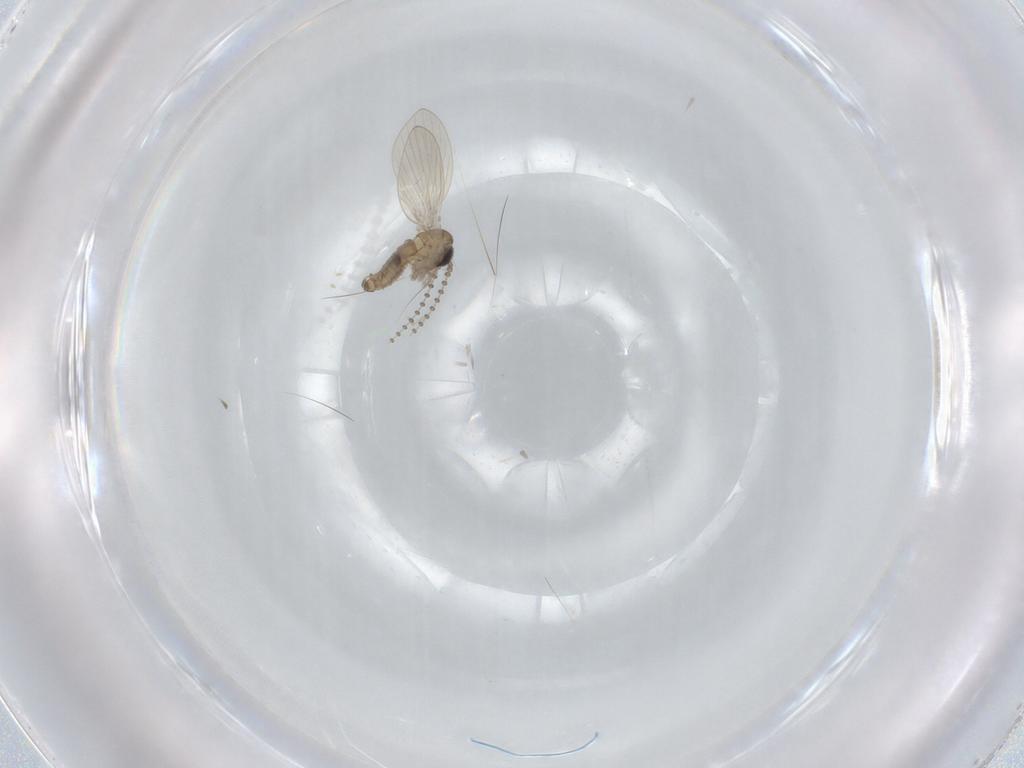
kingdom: Animalia
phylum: Arthropoda
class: Insecta
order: Diptera
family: Psychodidae
